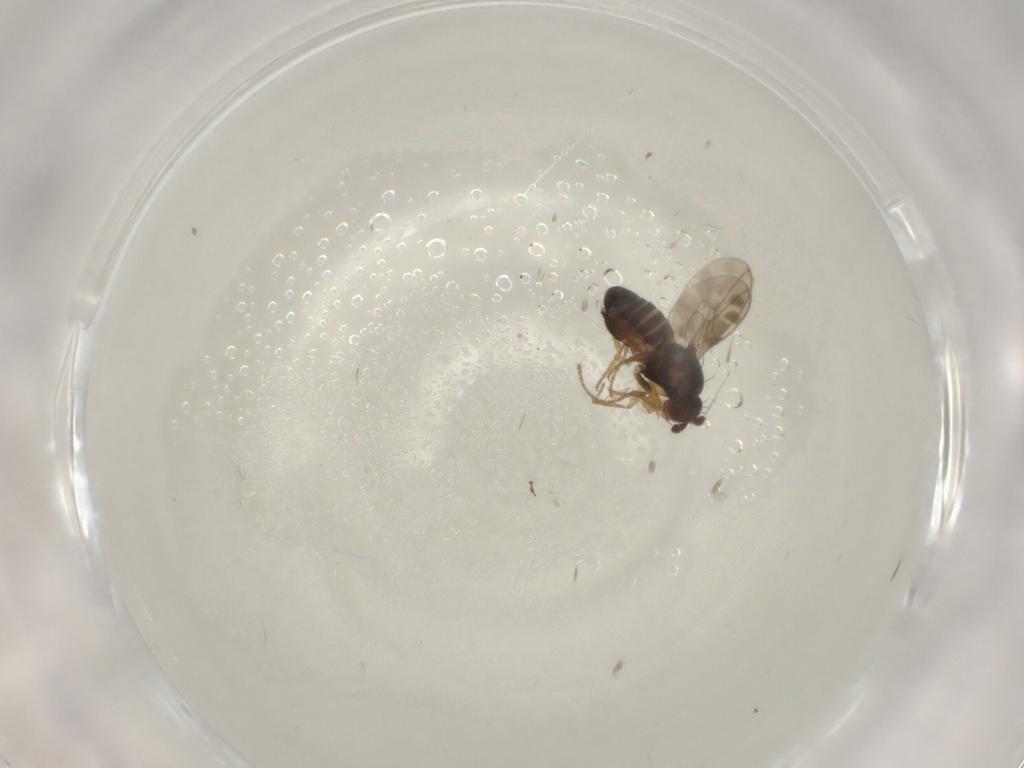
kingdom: Animalia
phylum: Arthropoda
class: Insecta
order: Diptera
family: Sphaeroceridae
